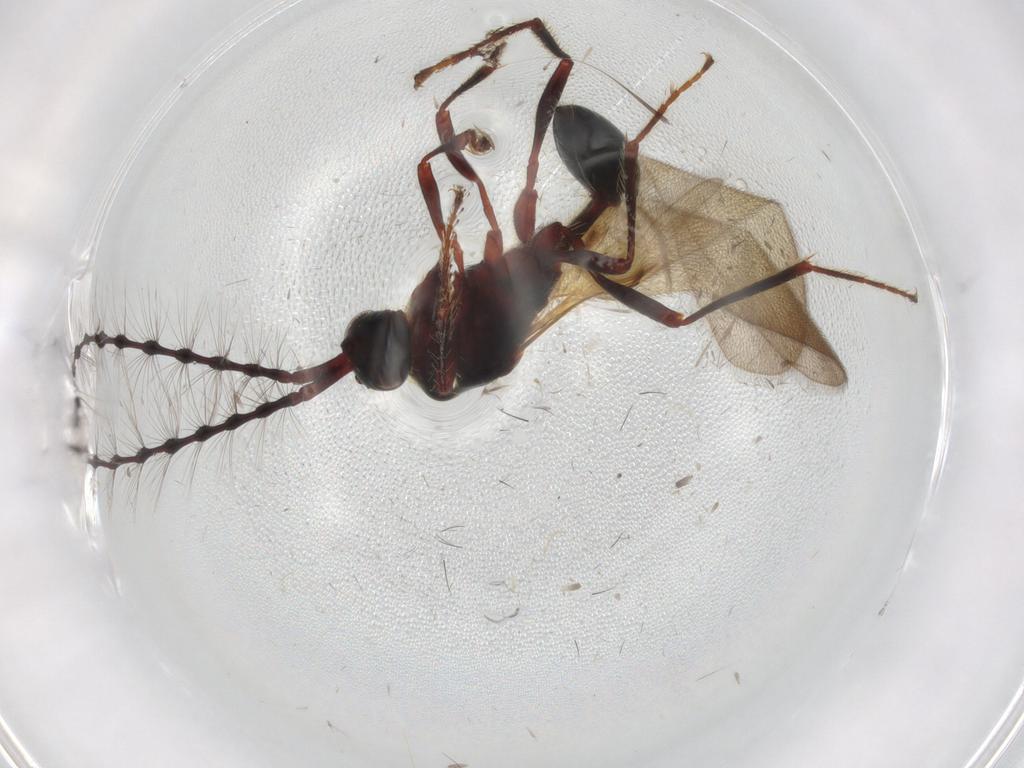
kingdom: Animalia
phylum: Arthropoda
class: Insecta
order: Hymenoptera
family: Diapriidae
